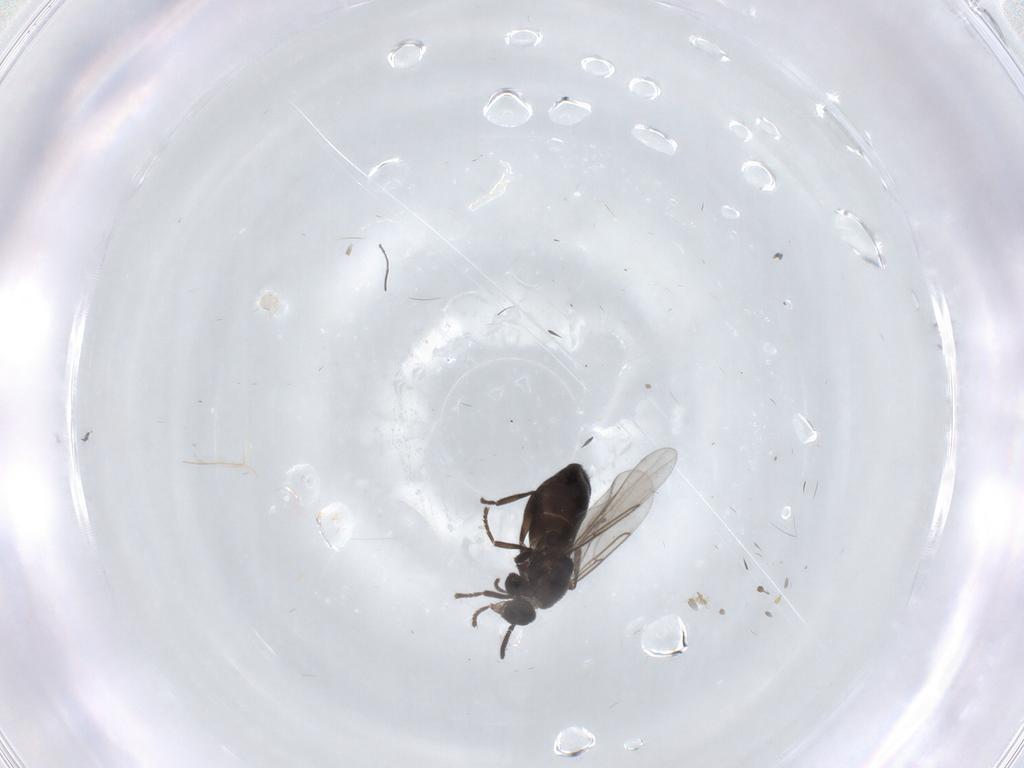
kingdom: Animalia
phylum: Arthropoda
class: Insecta
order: Diptera
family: Scatopsidae
